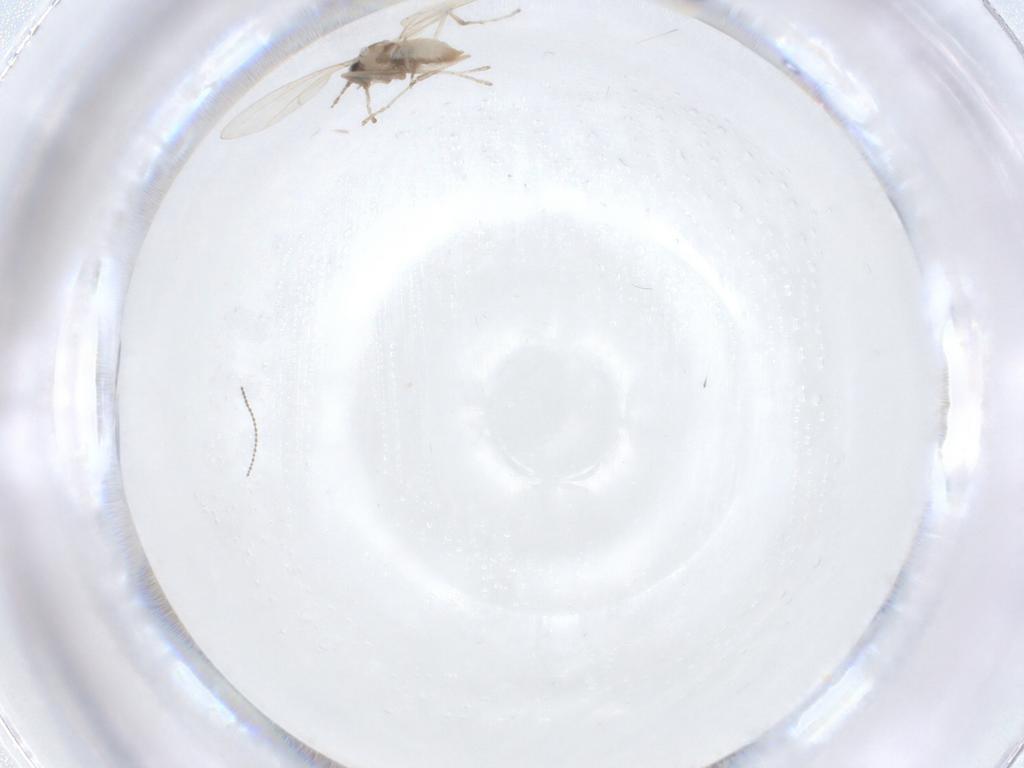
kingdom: Animalia
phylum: Arthropoda
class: Insecta
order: Diptera
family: Cecidomyiidae
